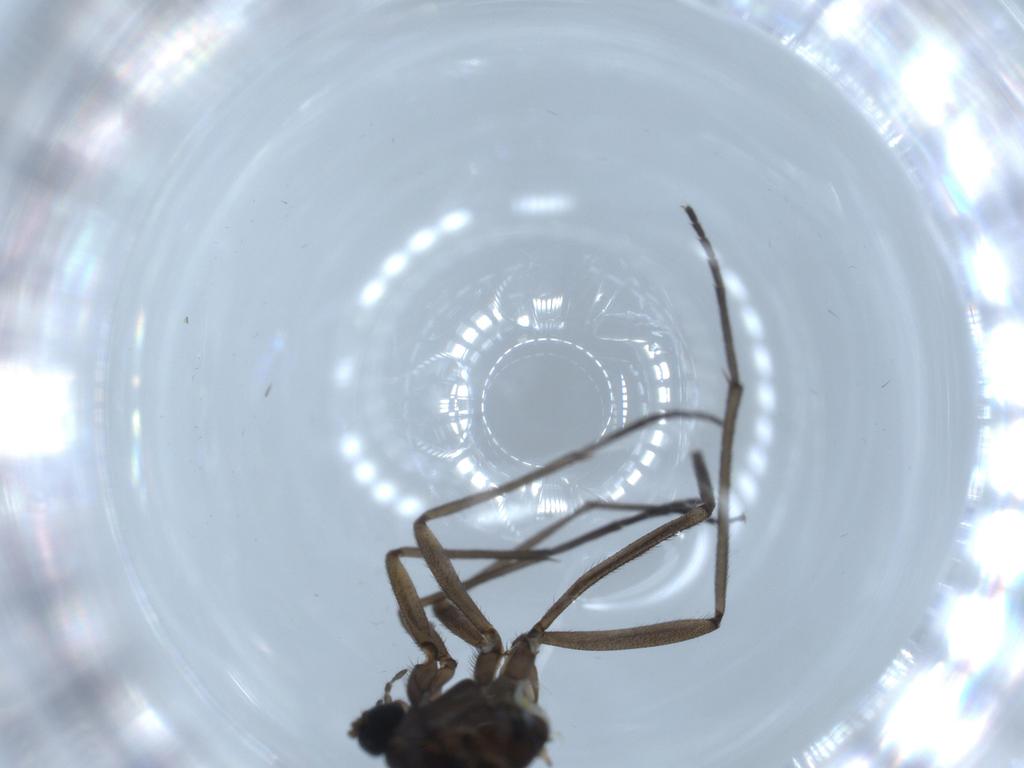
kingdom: Animalia
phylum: Arthropoda
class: Insecta
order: Diptera
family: Sciaridae
